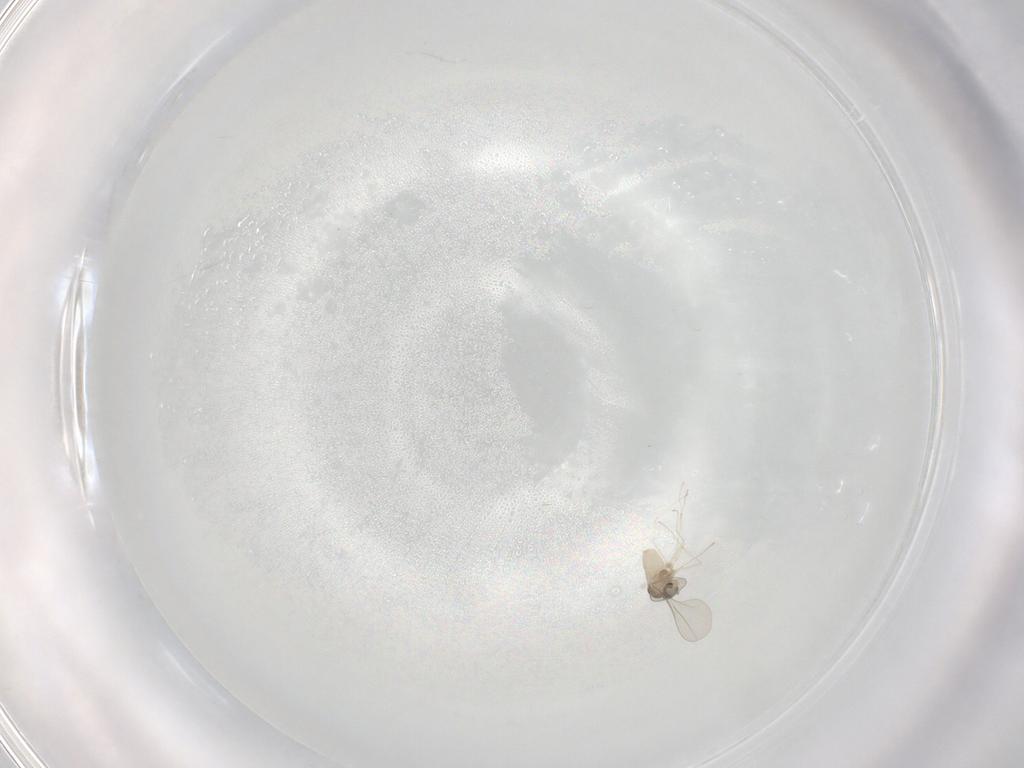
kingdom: Animalia
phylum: Arthropoda
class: Insecta
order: Diptera
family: Cecidomyiidae
